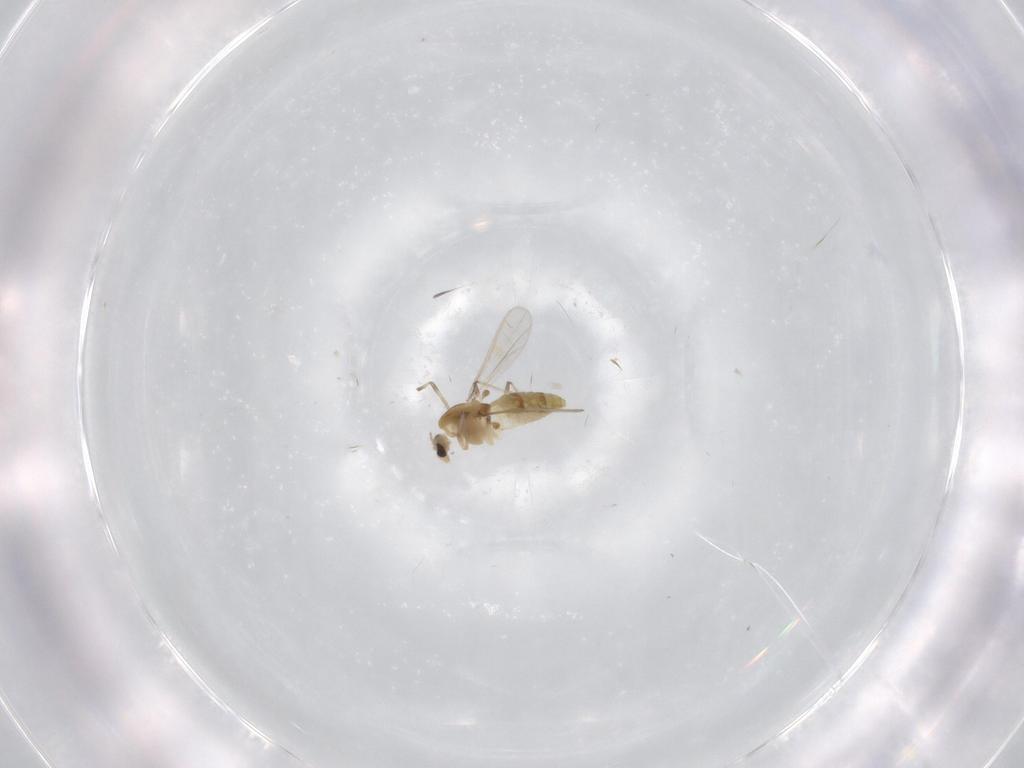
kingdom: Animalia
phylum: Arthropoda
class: Insecta
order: Diptera
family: Chironomidae
